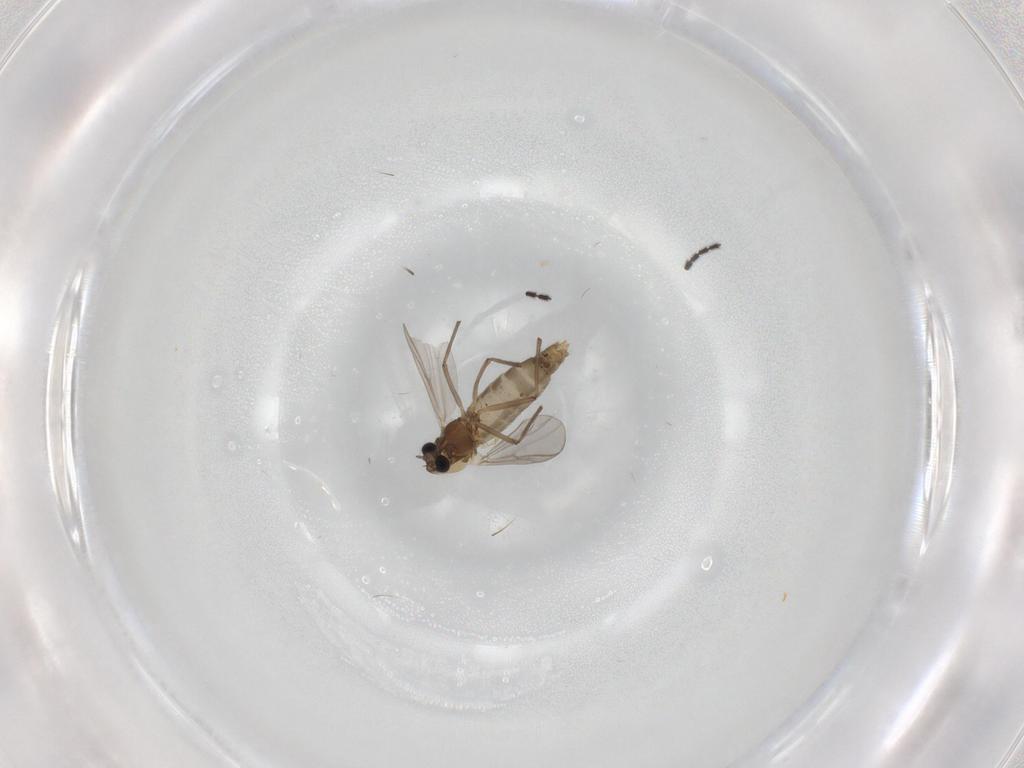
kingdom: Animalia
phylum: Arthropoda
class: Insecta
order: Diptera
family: Chironomidae
